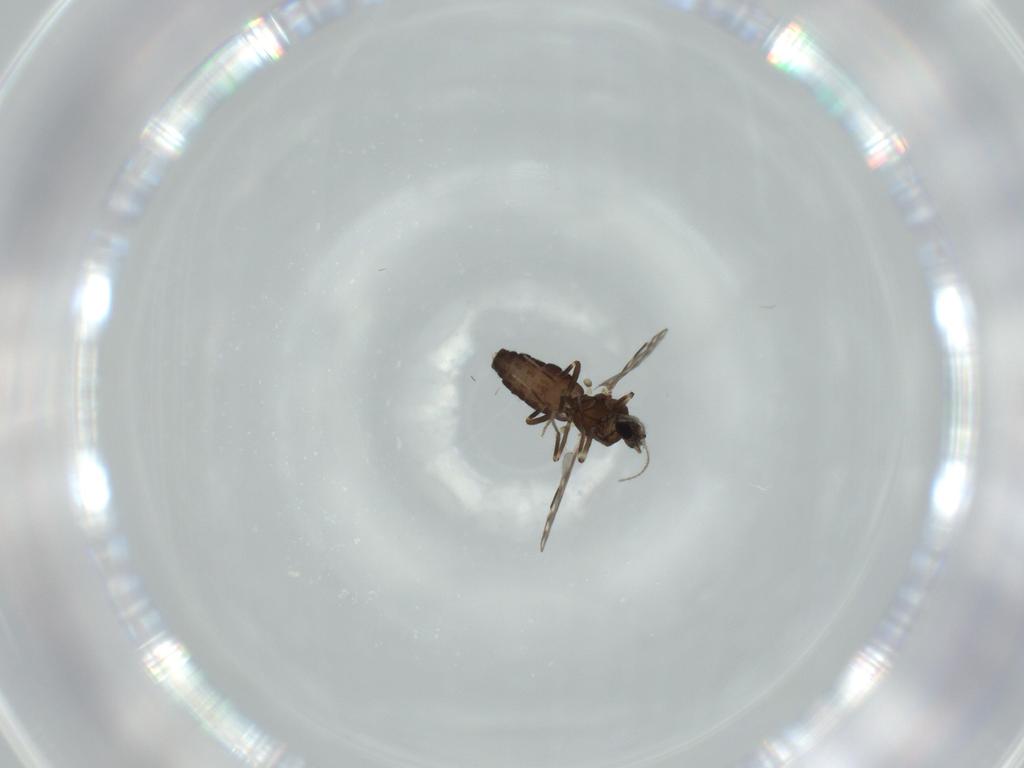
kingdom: Animalia
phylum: Arthropoda
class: Insecta
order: Diptera
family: Ceratopogonidae
